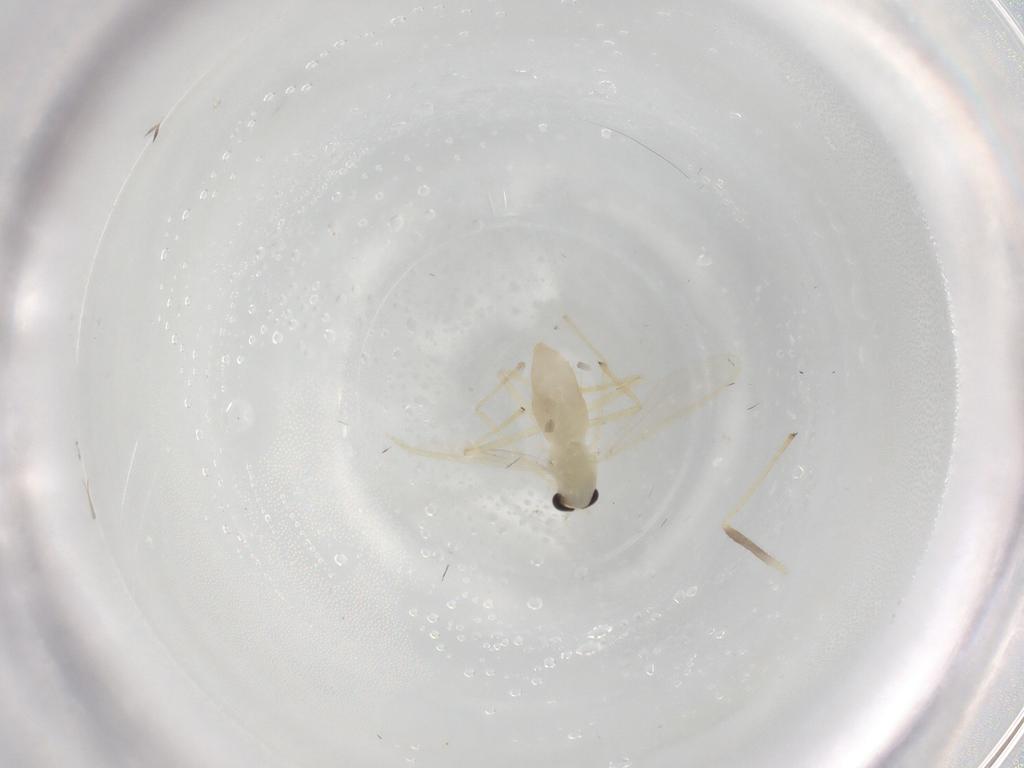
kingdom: Animalia
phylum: Arthropoda
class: Insecta
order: Diptera
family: Chironomidae
